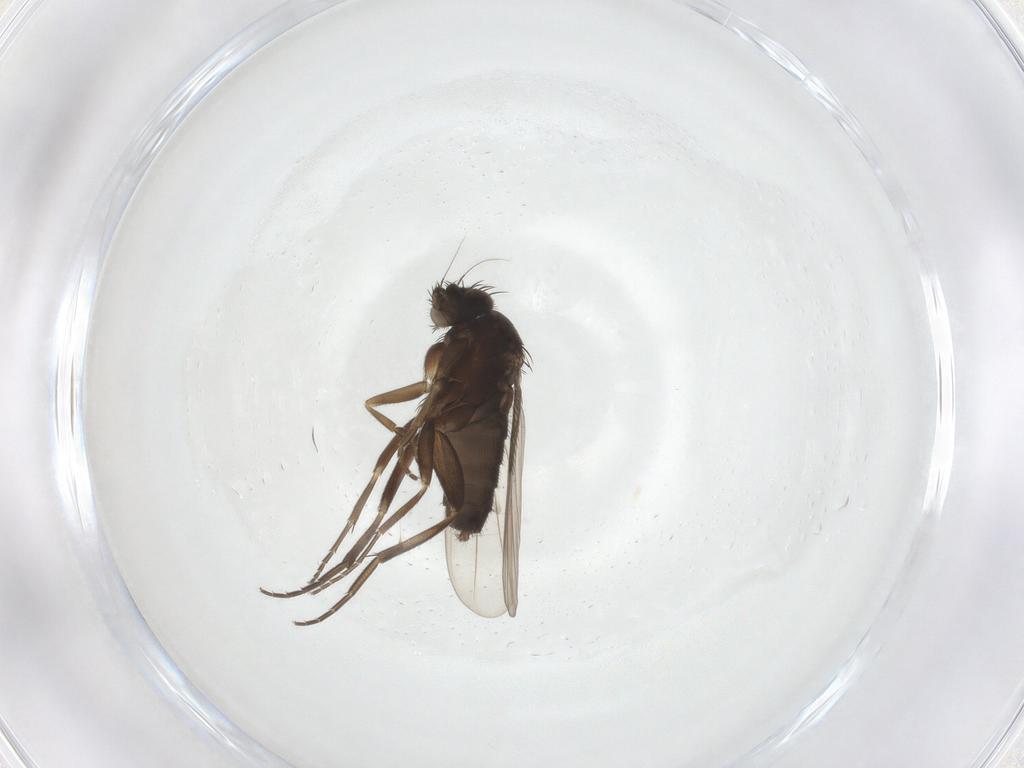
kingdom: Animalia
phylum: Arthropoda
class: Insecta
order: Diptera
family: Phoridae
